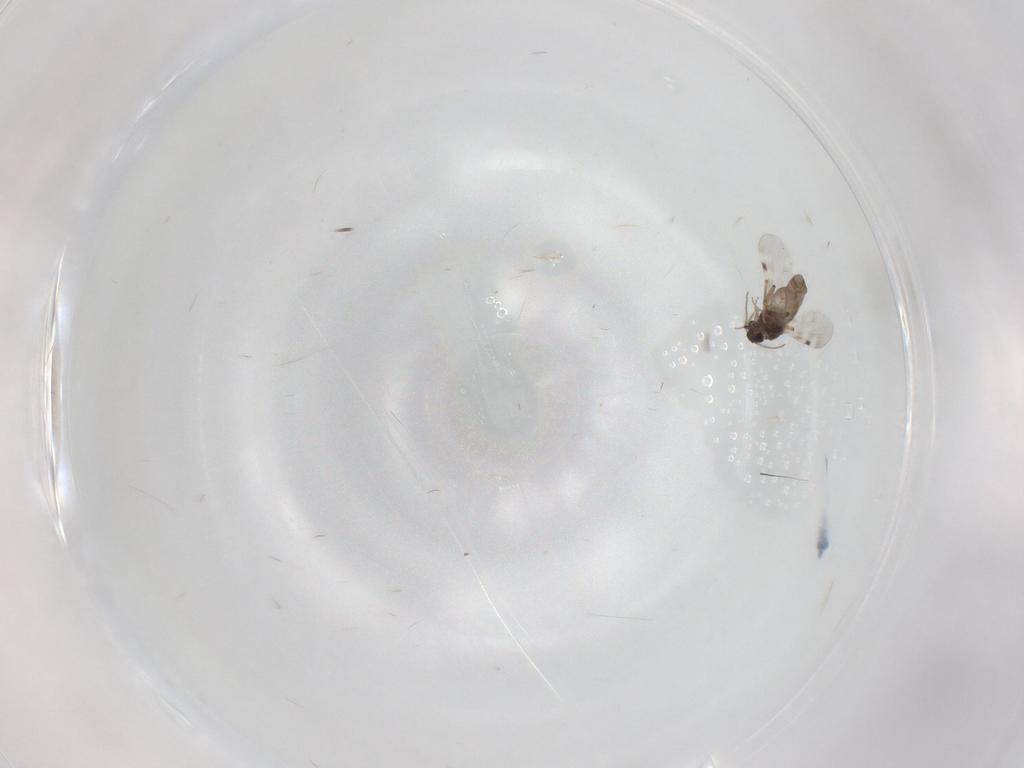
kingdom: Animalia
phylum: Arthropoda
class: Insecta
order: Diptera
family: Sciaridae
